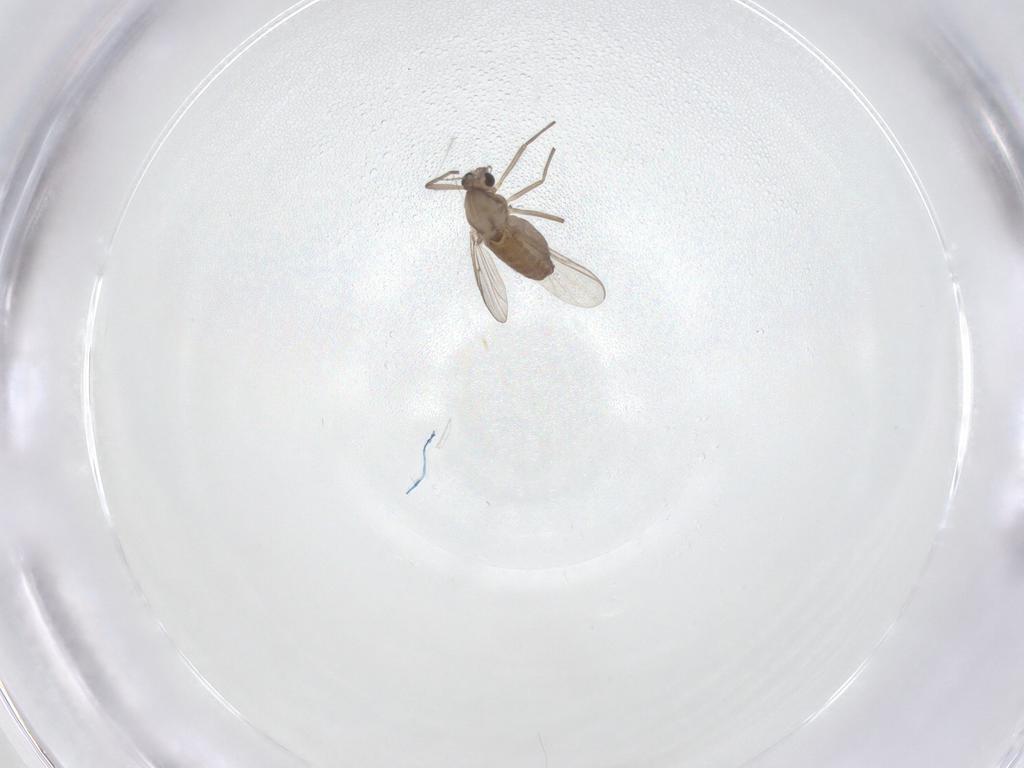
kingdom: Animalia
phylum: Arthropoda
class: Insecta
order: Diptera
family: Chironomidae
